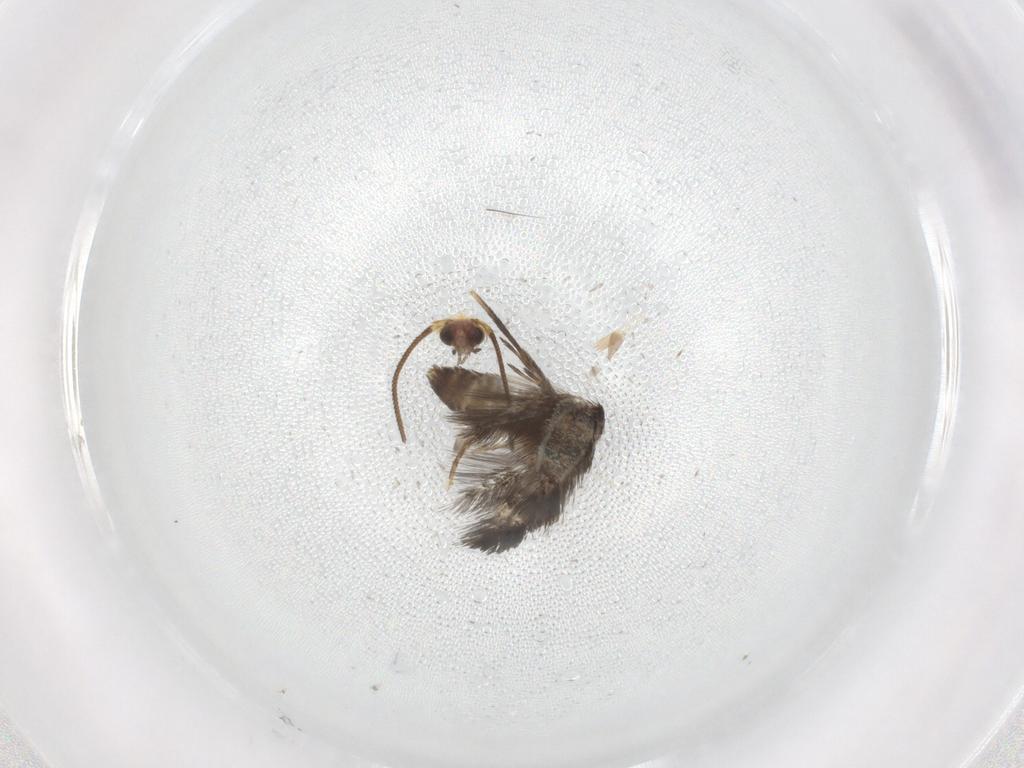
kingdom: Animalia
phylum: Arthropoda
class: Insecta
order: Lepidoptera
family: Nepticulidae
